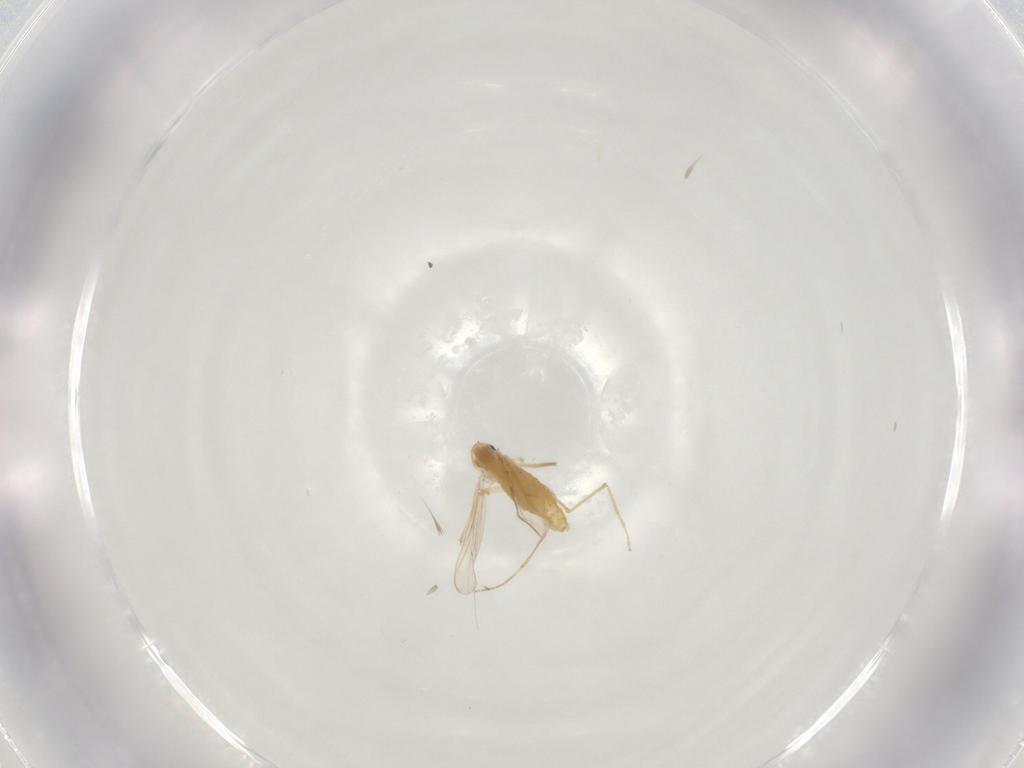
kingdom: Animalia
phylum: Arthropoda
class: Insecta
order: Diptera
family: Chironomidae
